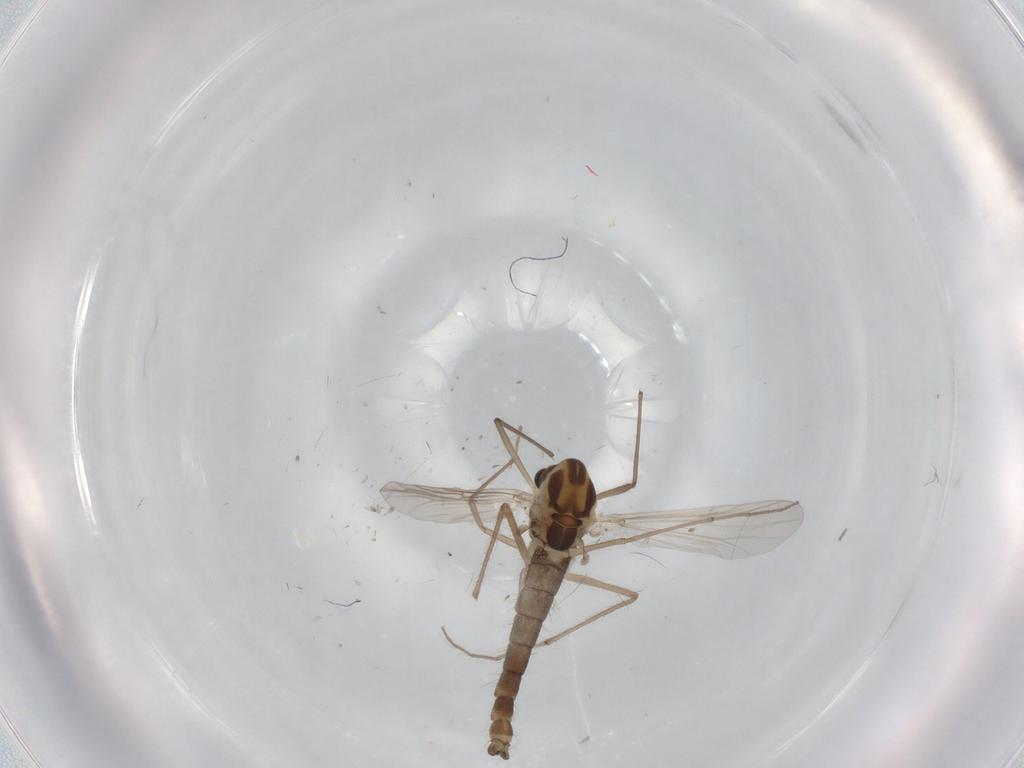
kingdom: Animalia
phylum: Arthropoda
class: Insecta
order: Diptera
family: Chironomidae
